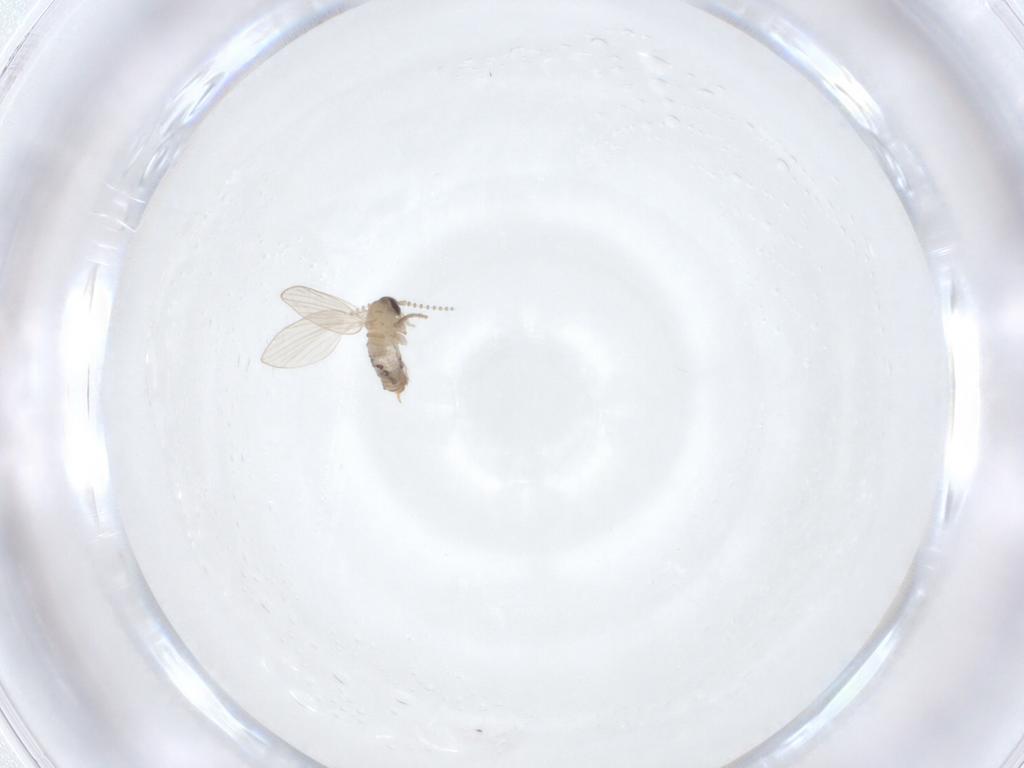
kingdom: Animalia
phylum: Arthropoda
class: Insecta
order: Diptera
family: Psychodidae
